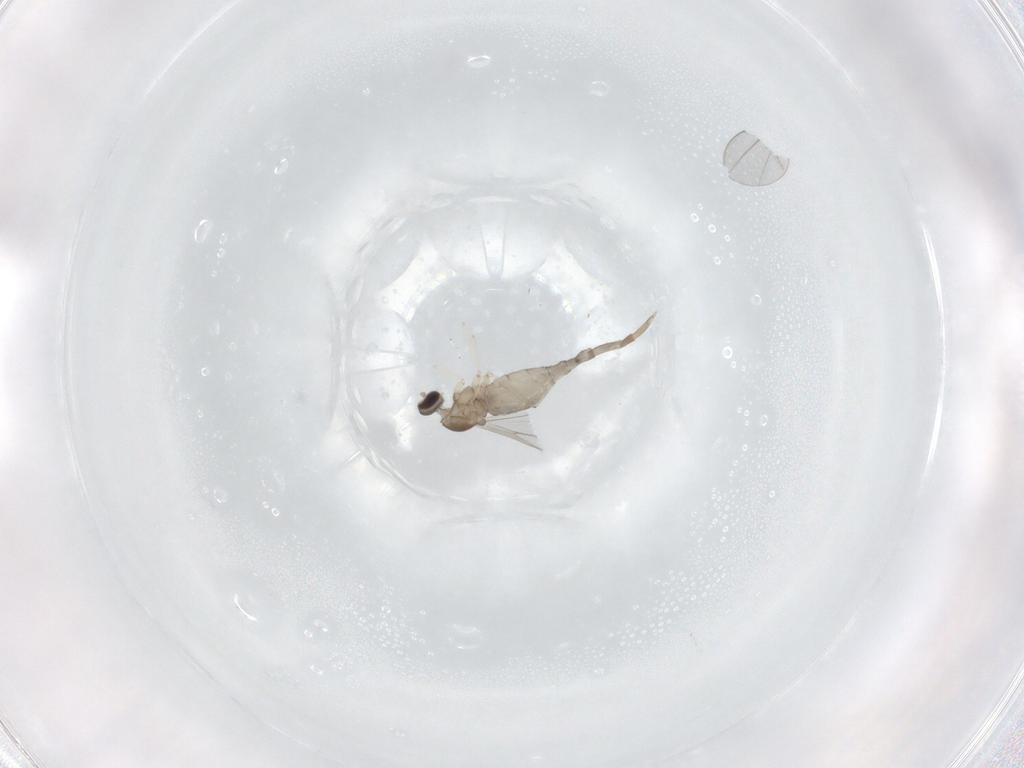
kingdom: Animalia
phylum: Arthropoda
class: Insecta
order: Diptera
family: Cecidomyiidae
